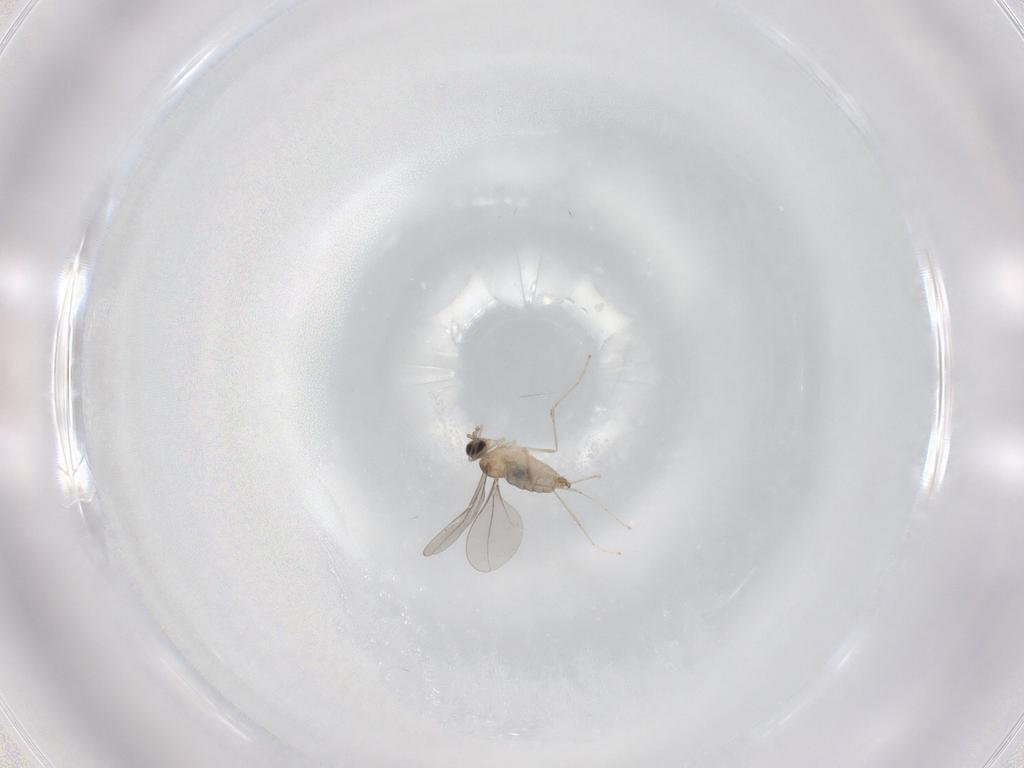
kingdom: Animalia
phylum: Arthropoda
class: Insecta
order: Diptera
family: Cecidomyiidae
